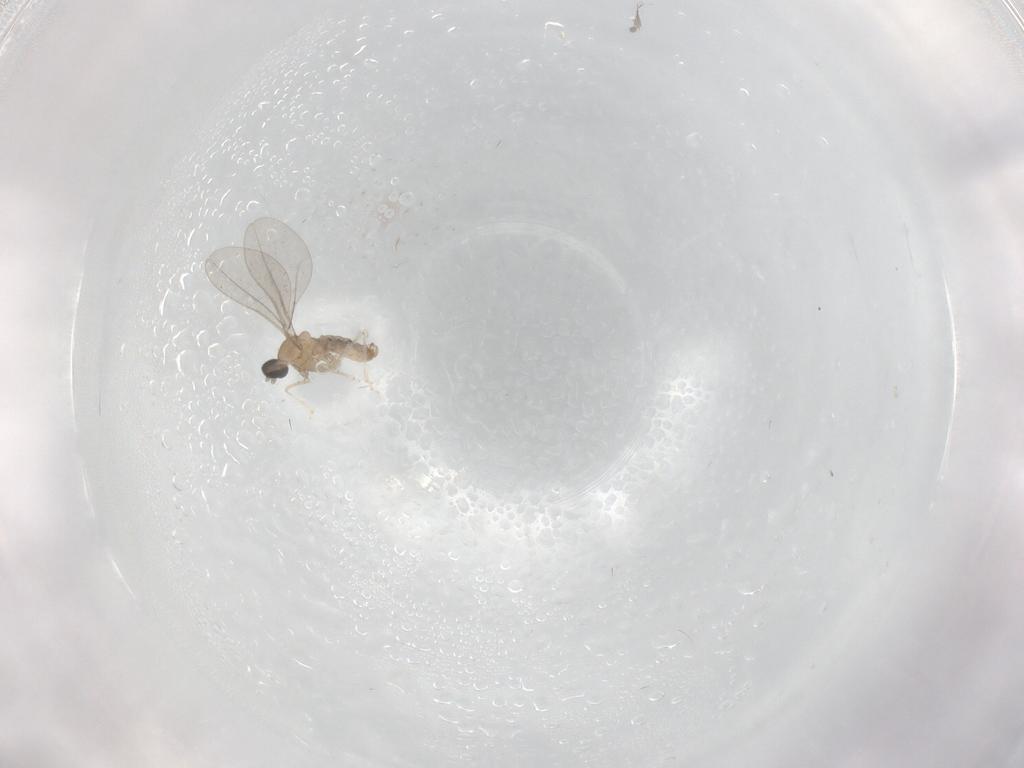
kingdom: Animalia
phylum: Arthropoda
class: Insecta
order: Diptera
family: Cecidomyiidae
